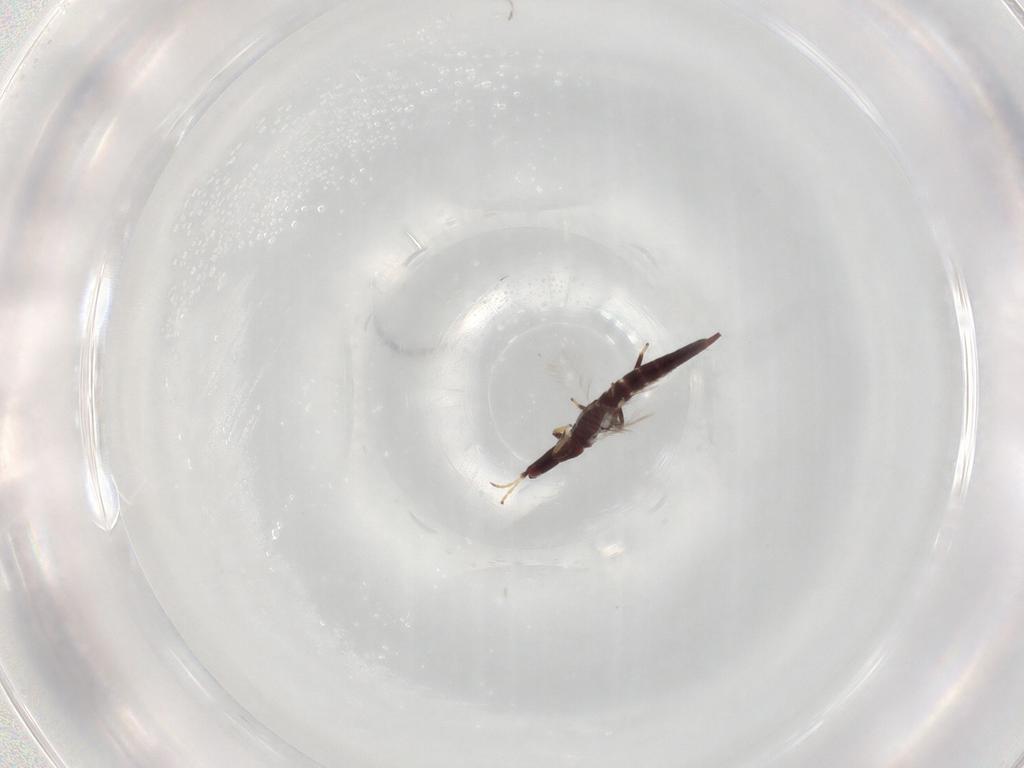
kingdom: Animalia
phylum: Arthropoda
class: Insecta
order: Thysanoptera
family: Phlaeothripidae
